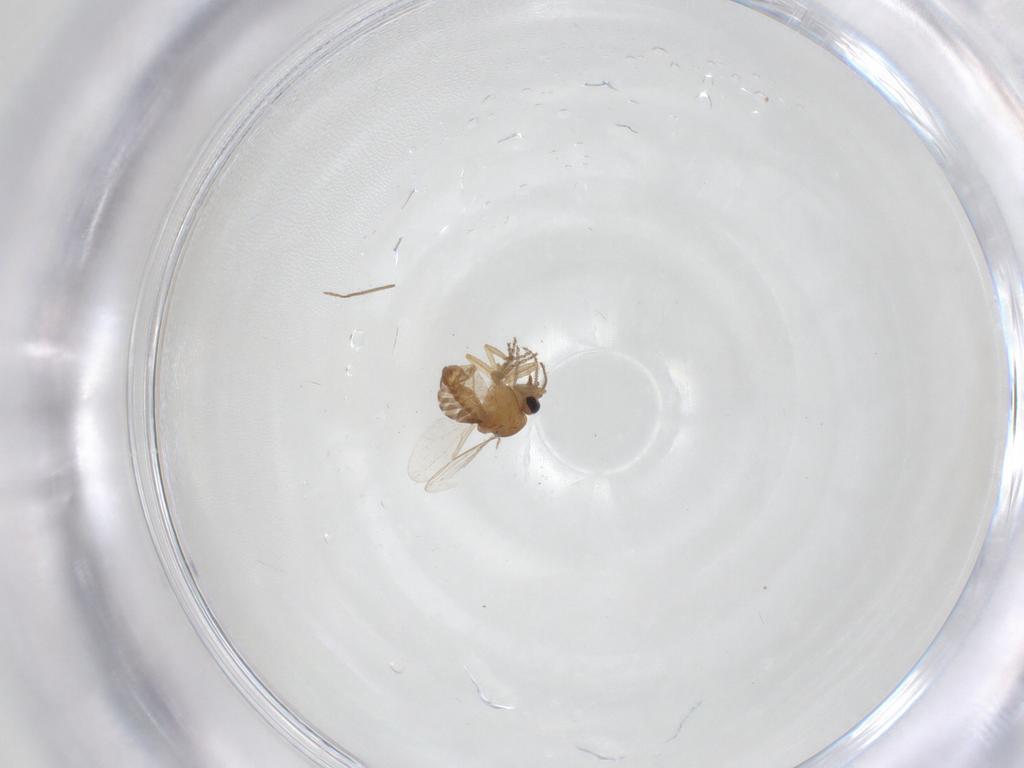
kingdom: Animalia
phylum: Arthropoda
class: Insecta
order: Diptera
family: Ceratopogonidae
